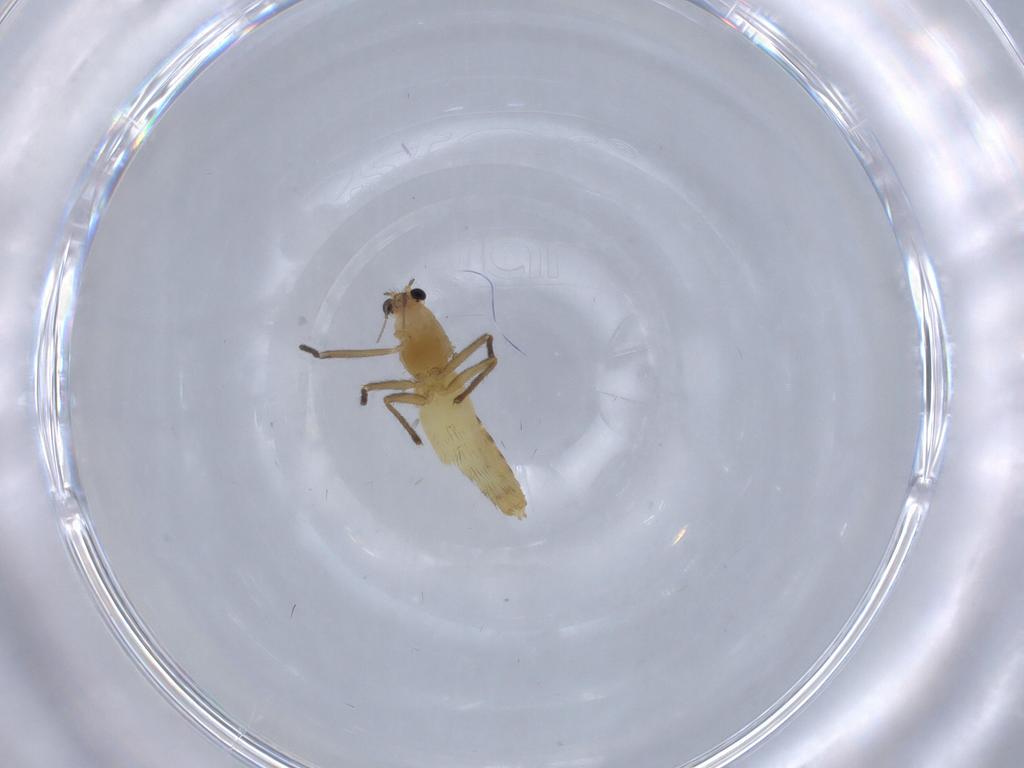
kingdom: Animalia
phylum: Arthropoda
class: Insecta
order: Diptera
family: Chironomidae
